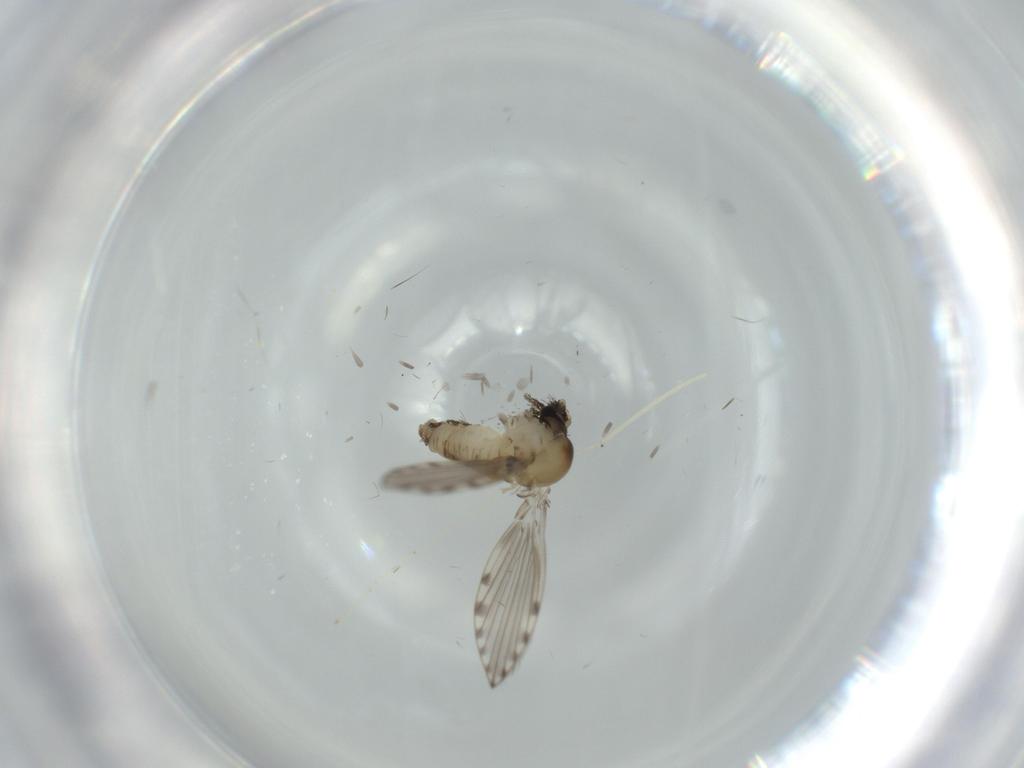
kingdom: Animalia
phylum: Arthropoda
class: Insecta
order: Diptera
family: Psychodidae
